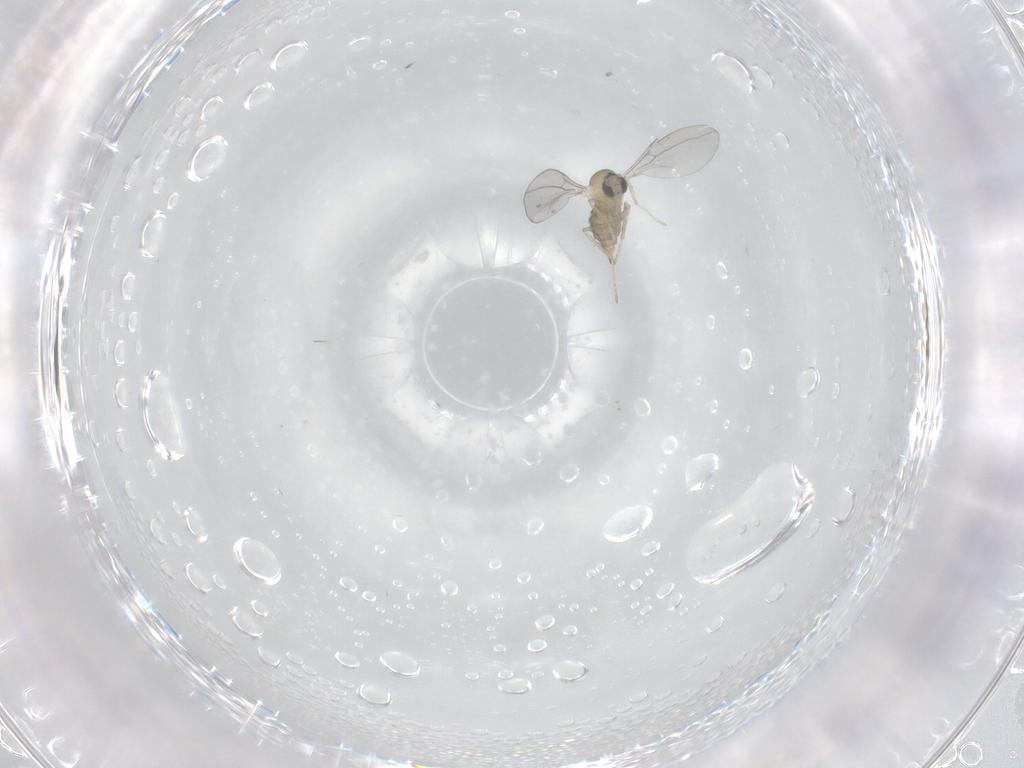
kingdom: Animalia
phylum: Arthropoda
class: Insecta
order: Diptera
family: Cecidomyiidae
